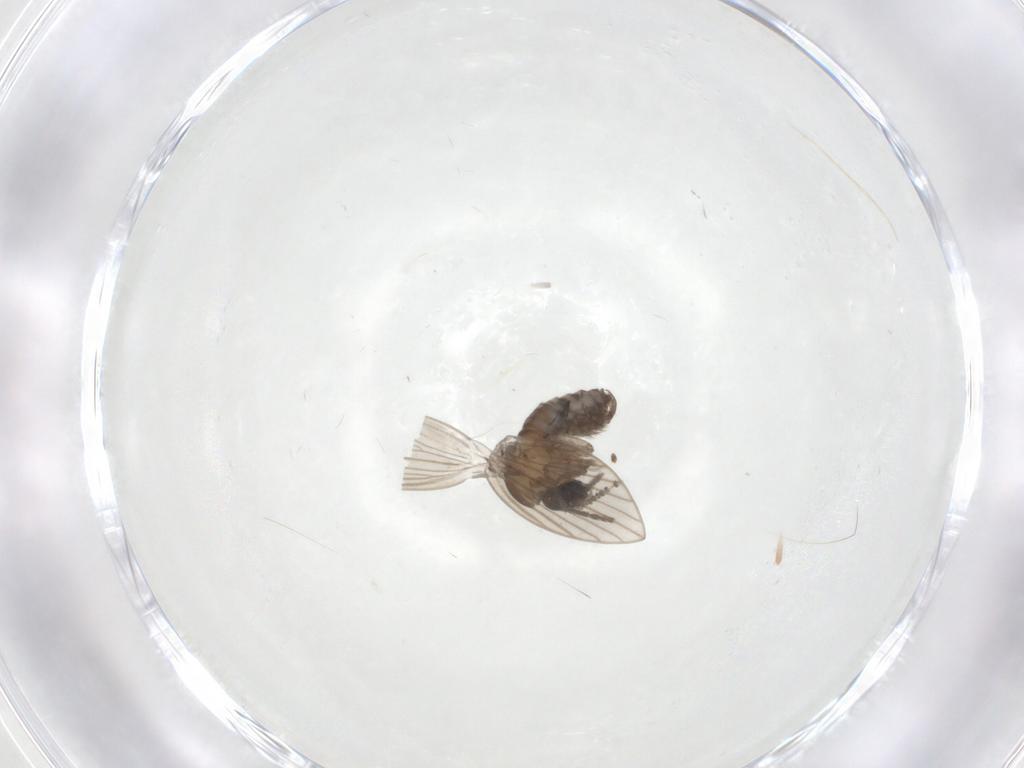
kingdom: Animalia
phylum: Arthropoda
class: Insecta
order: Diptera
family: Psychodidae
